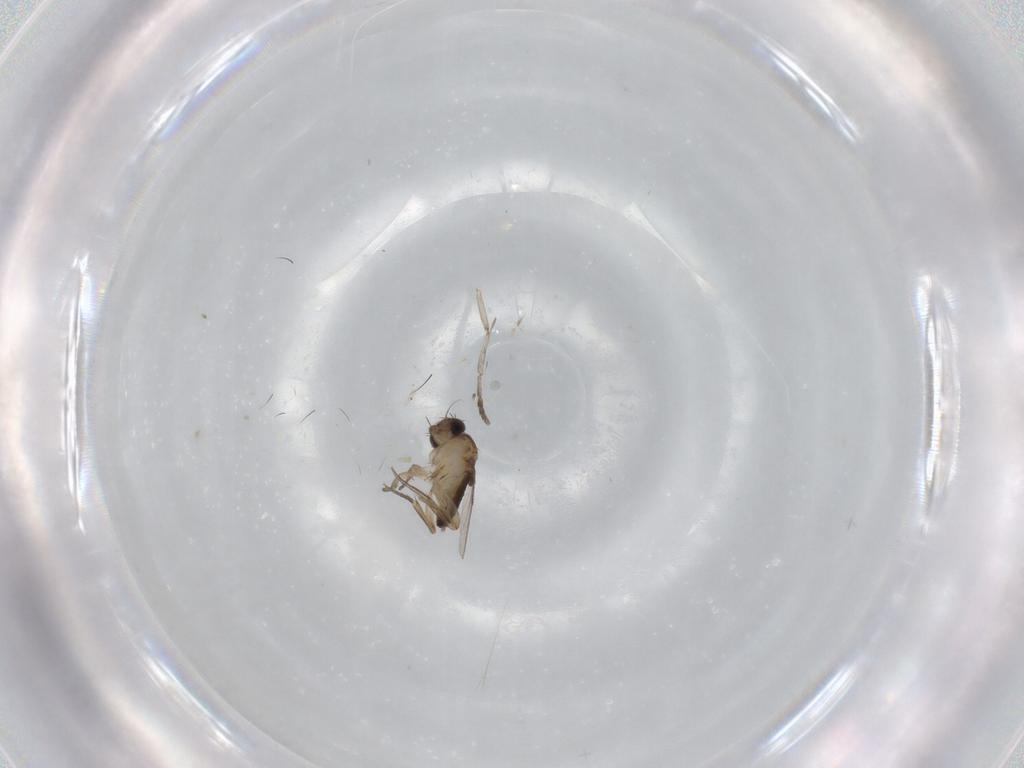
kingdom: Animalia
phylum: Arthropoda
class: Insecta
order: Diptera
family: Phoridae
